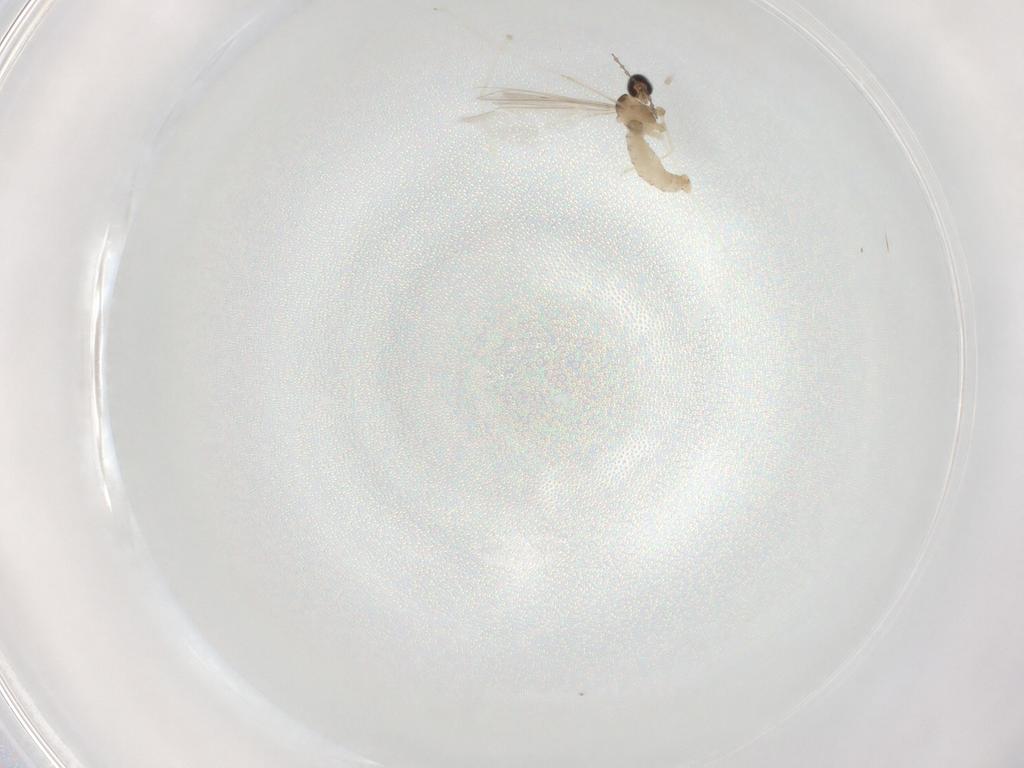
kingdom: Animalia
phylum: Arthropoda
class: Insecta
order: Diptera
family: Cecidomyiidae
